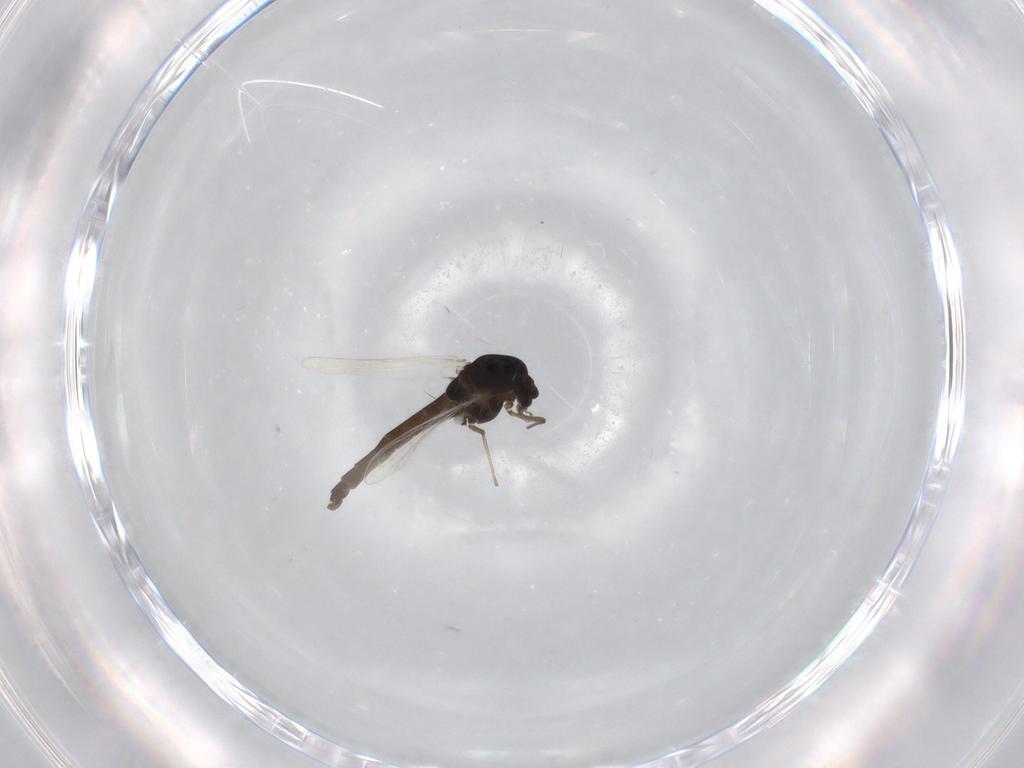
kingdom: Animalia
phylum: Arthropoda
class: Insecta
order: Diptera
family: Chironomidae
